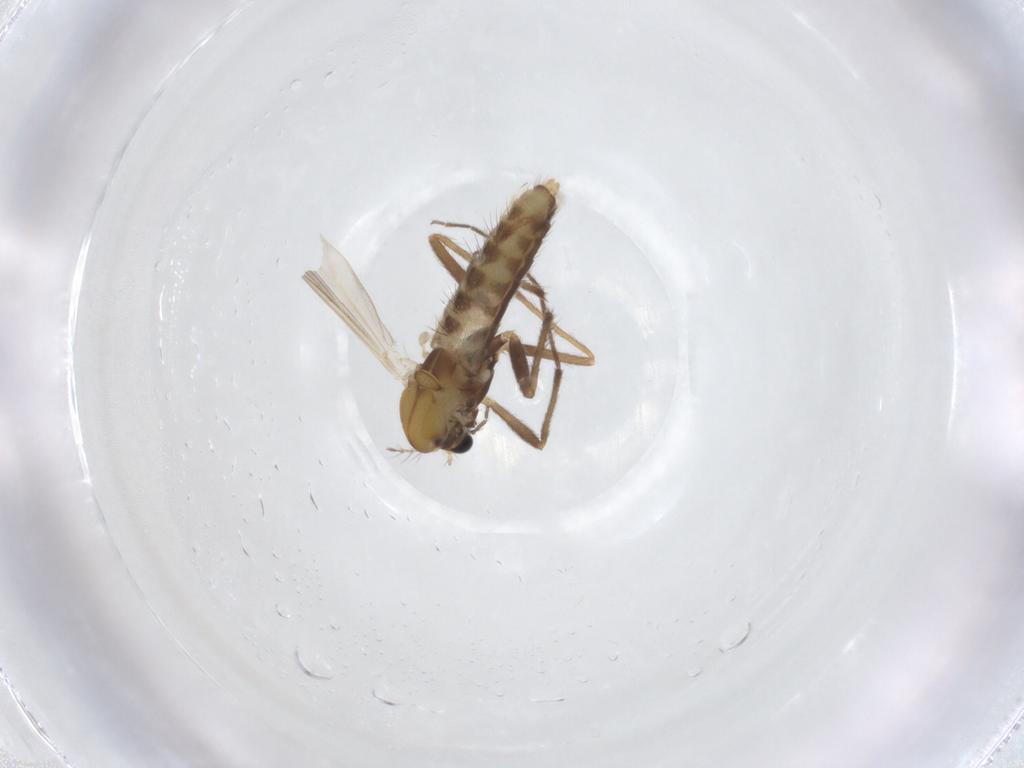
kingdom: Animalia
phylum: Arthropoda
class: Insecta
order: Diptera
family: Chironomidae
